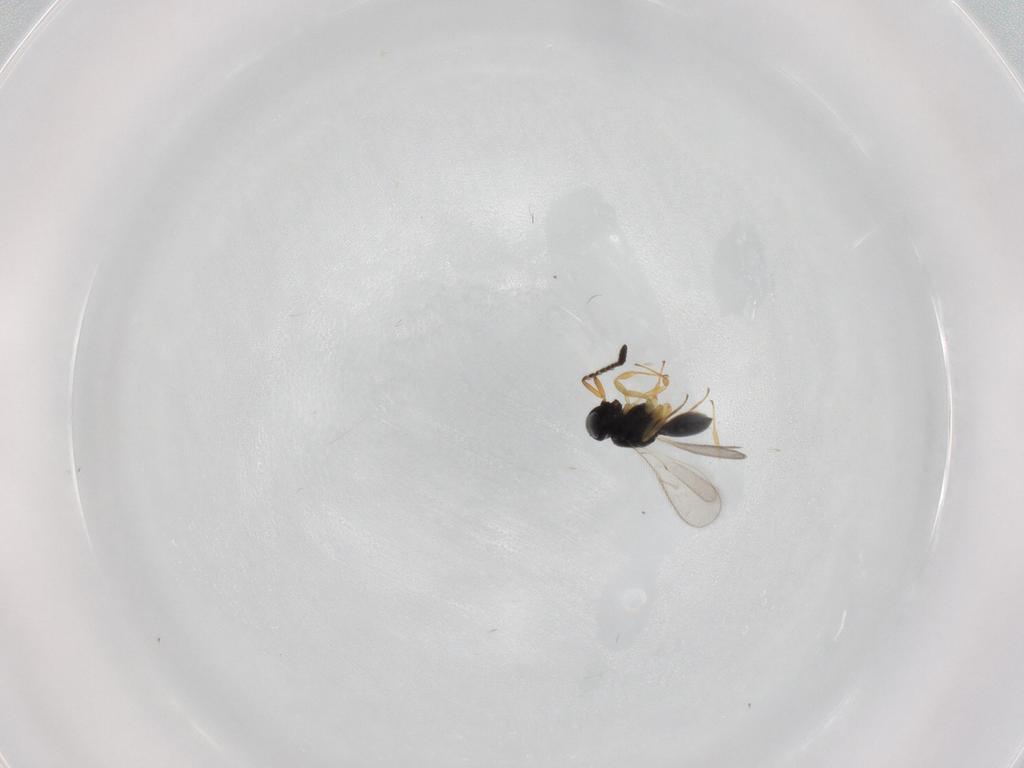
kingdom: Animalia
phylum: Arthropoda
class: Insecta
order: Hymenoptera
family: Scelionidae
